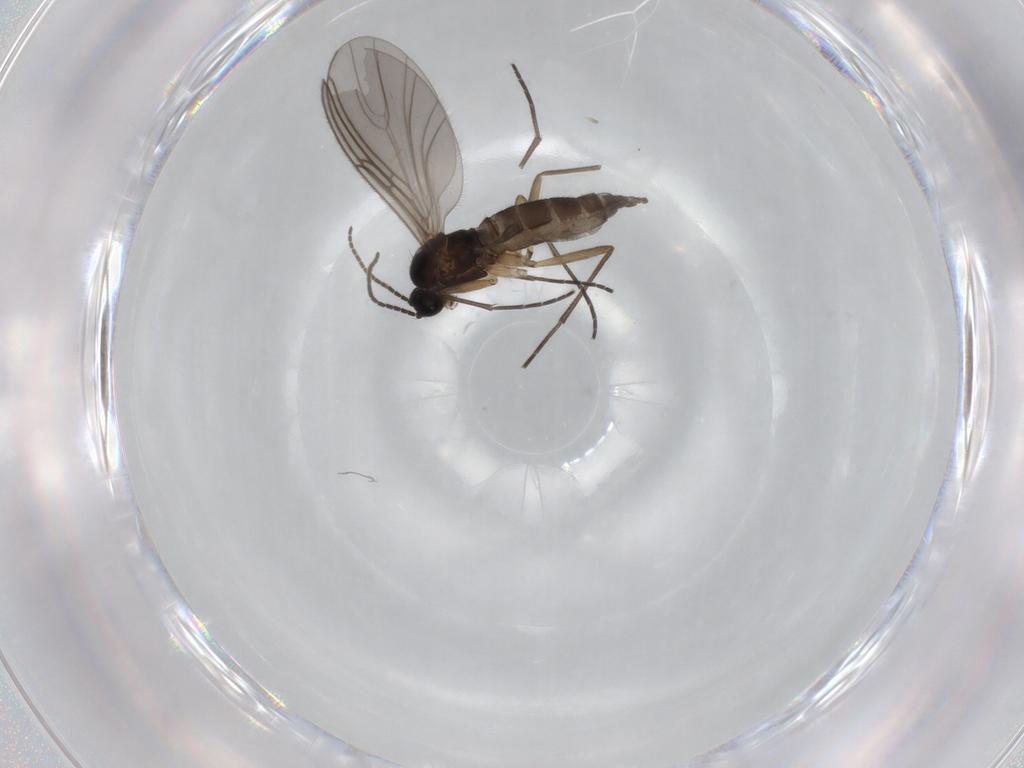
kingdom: Animalia
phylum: Arthropoda
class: Insecta
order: Diptera
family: Sciaridae
